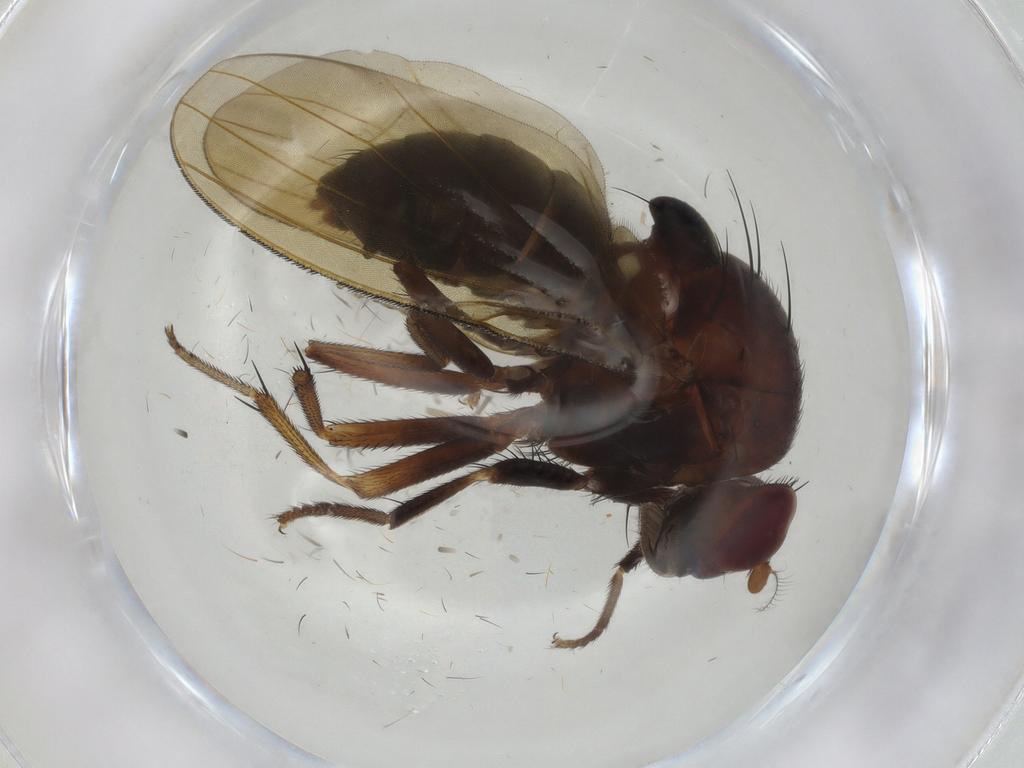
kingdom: Animalia
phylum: Arthropoda
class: Insecta
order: Diptera
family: Sciaridae
